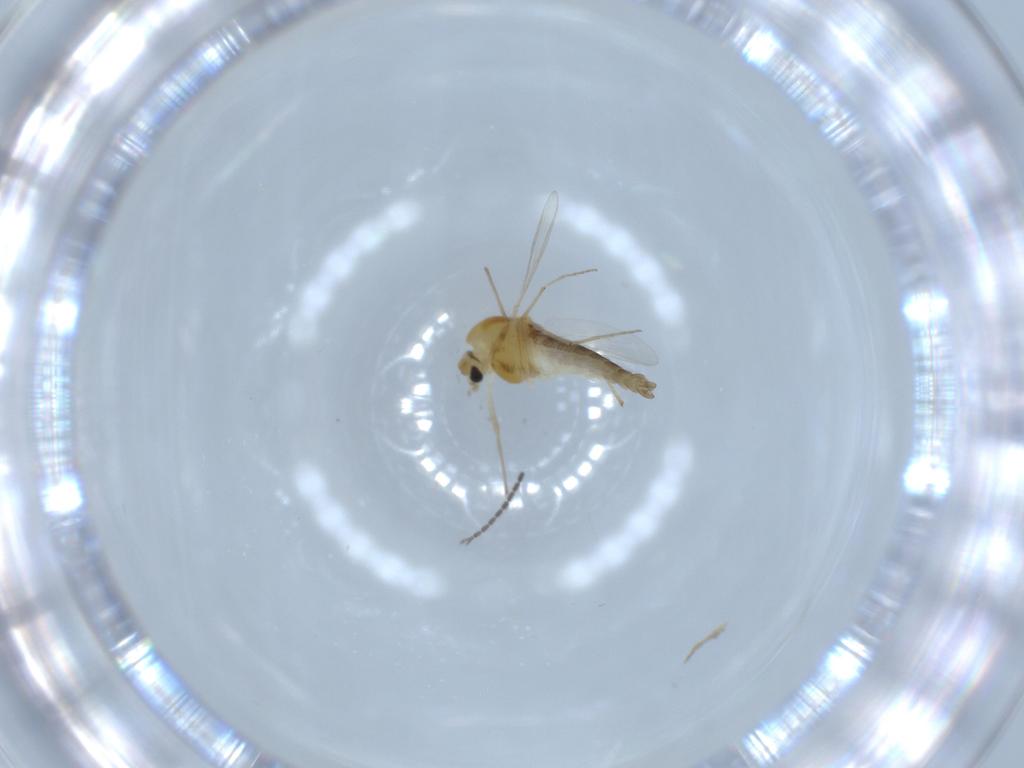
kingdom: Animalia
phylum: Arthropoda
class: Insecta
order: Diptera
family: Chironomidae
